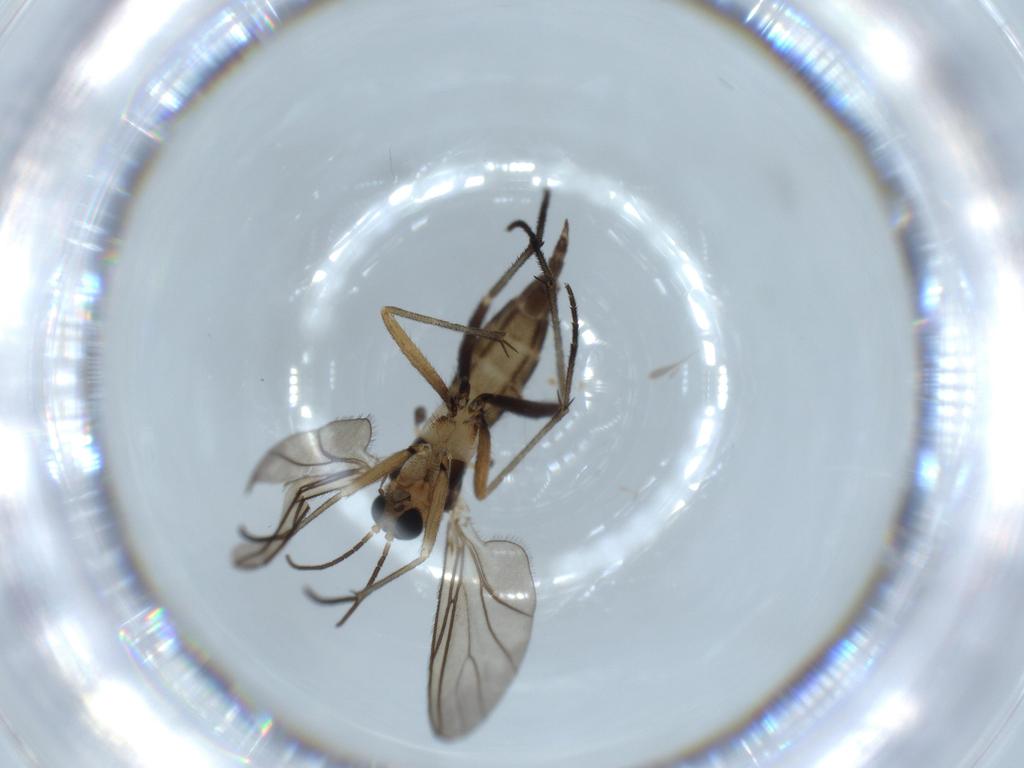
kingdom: Animalia
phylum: Arthropoda
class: Insecta
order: Diptera
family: Sciaridae
